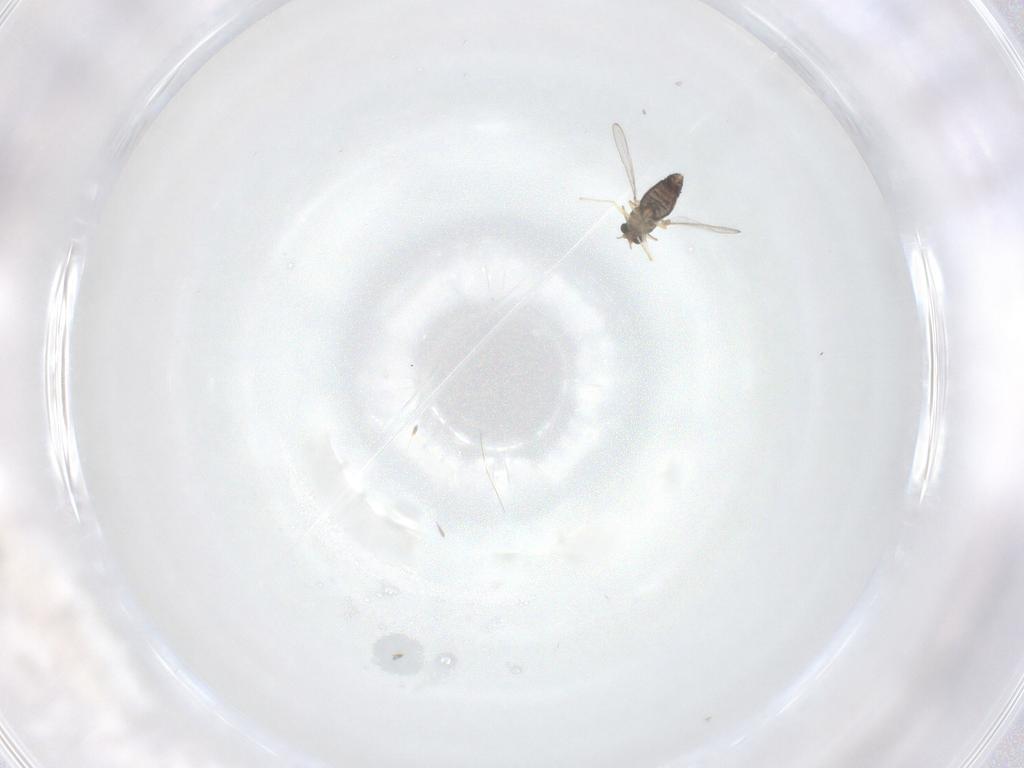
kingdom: Animalia
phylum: Arthropoda
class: Insecta
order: Diptera
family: Chironomidae
